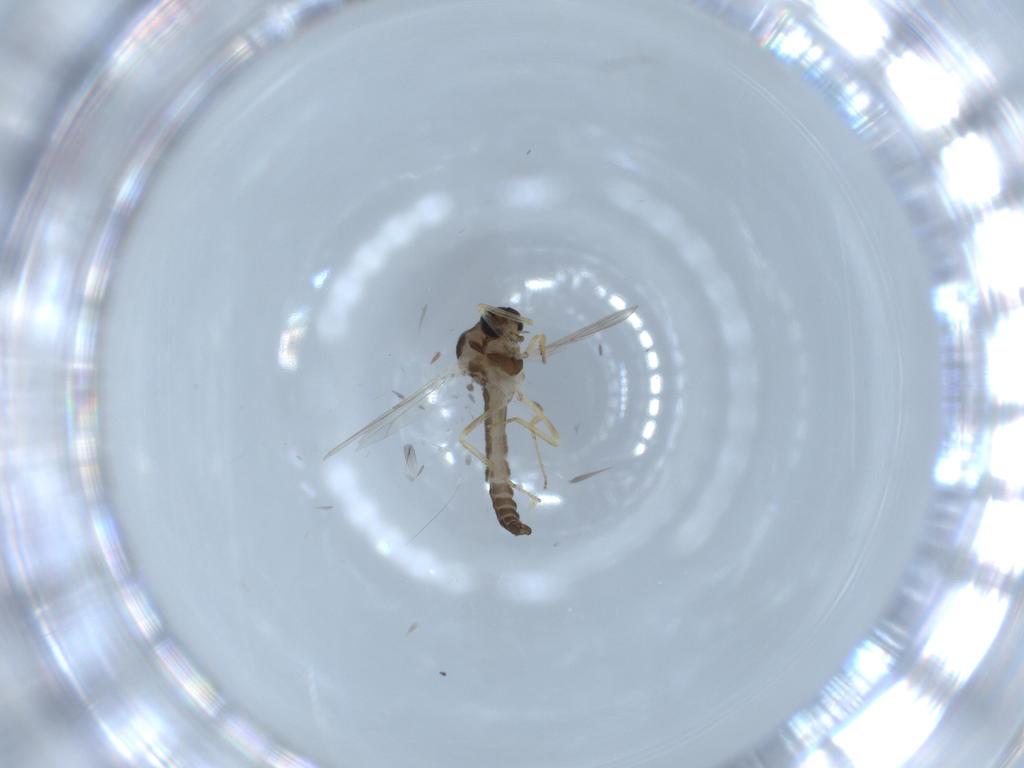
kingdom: Animalia
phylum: Arthropoda
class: Insecta
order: Diptera
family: Ceratopogonidae
